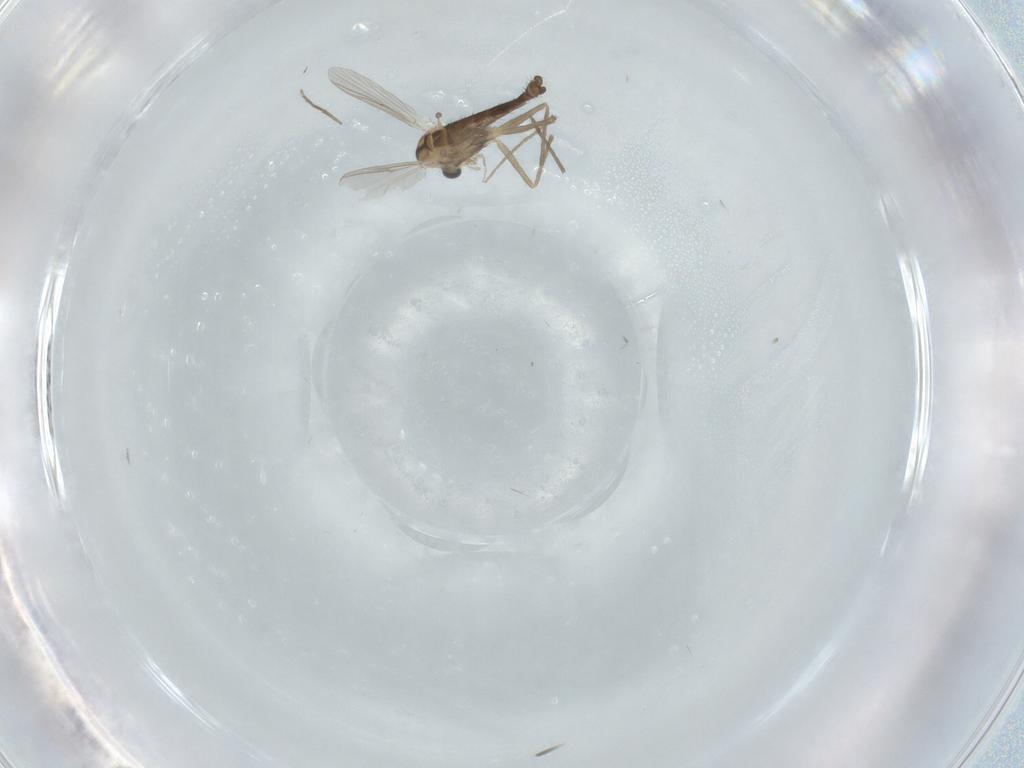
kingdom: Animalia
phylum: Arthropoda
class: Insecta
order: Diptera
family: Chironomidae
